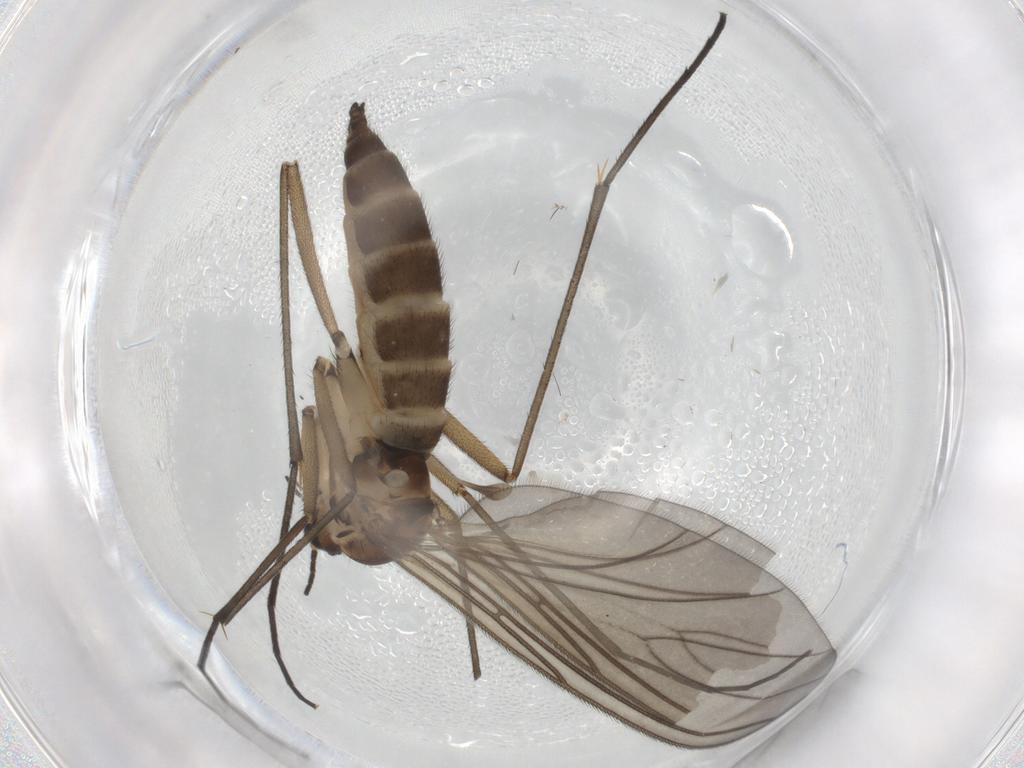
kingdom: Animalia
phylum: Arthropoda
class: Insecta
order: Diptera
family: Sciaridae
